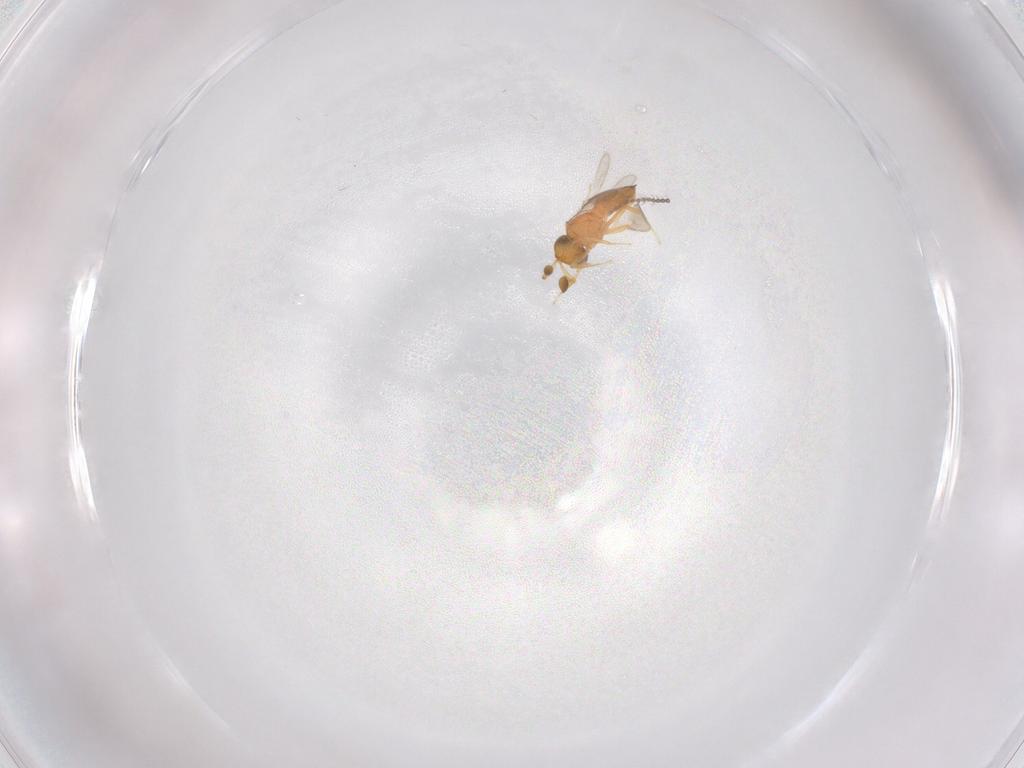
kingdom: Animalia
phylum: Arthropoda
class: Insecta
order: Hymenoptera
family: Scelionidae
